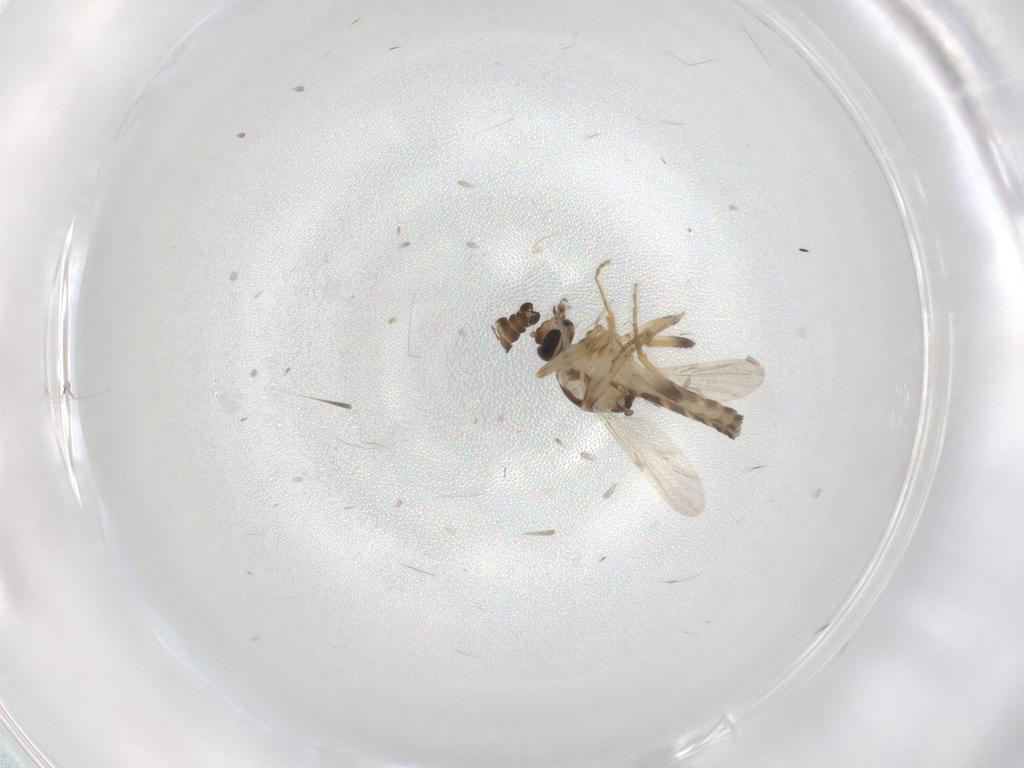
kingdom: Animalia
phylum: Arthropoda
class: Insecta
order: Diptera
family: Ceratopogonidae
